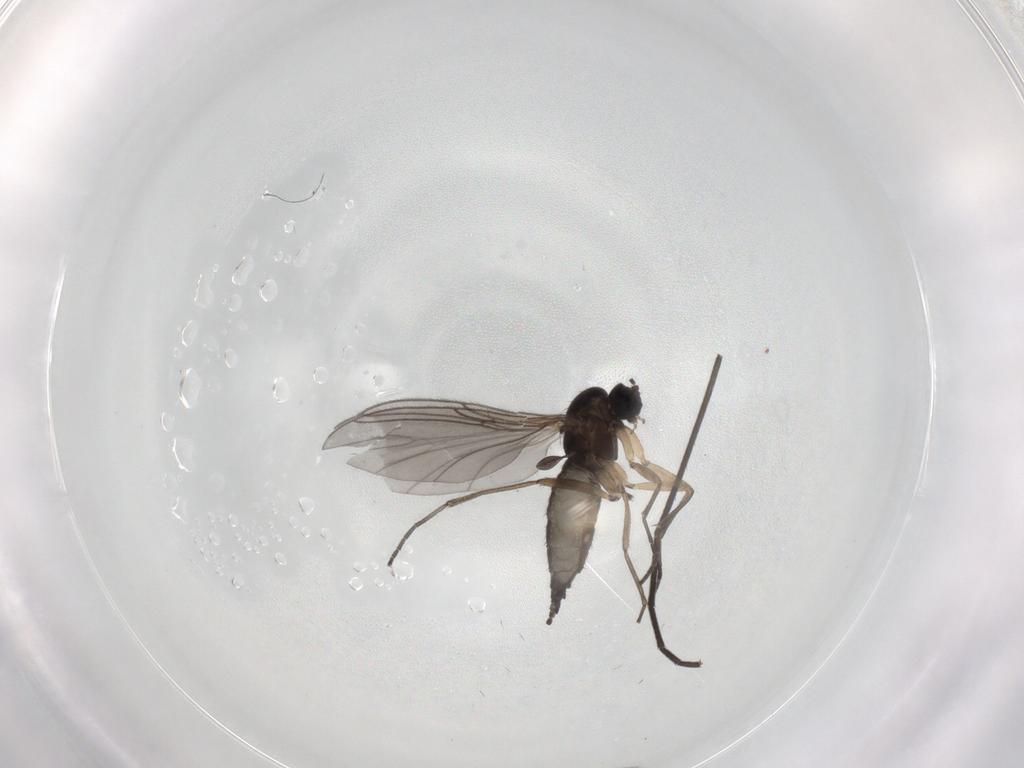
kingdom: Animalia
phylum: Arthropoda
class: Insecta
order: Diptera
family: Sciaridae
